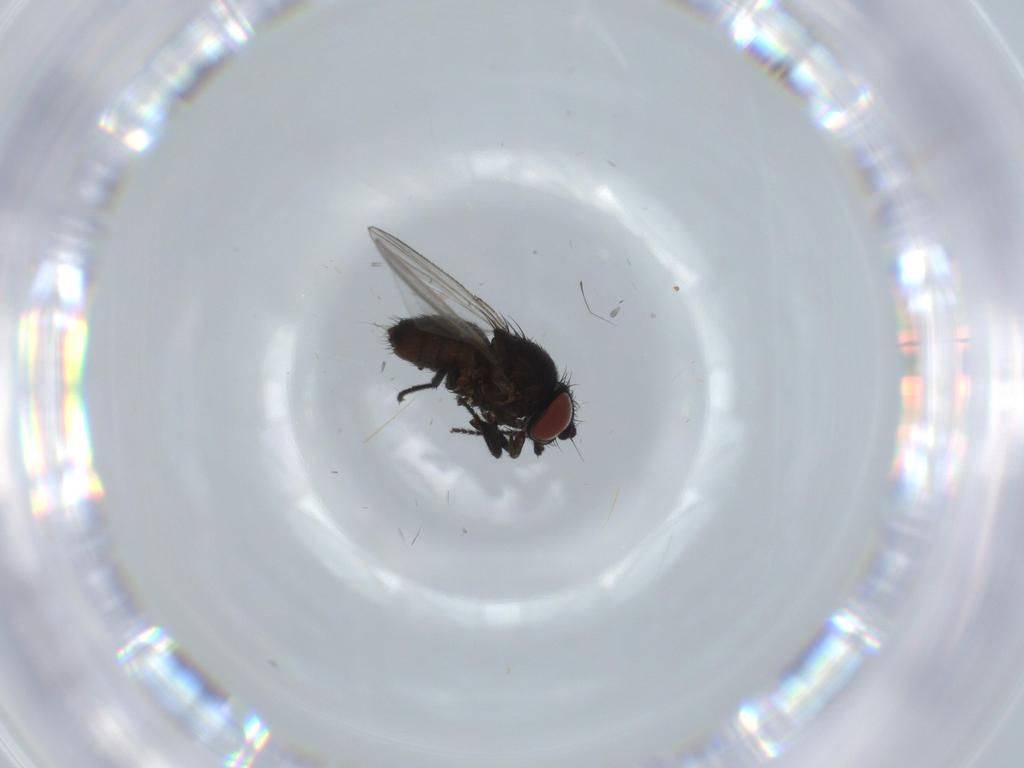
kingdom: Animalia
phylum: Arthropoda
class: Insecta
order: Diptera
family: Milichiidae
